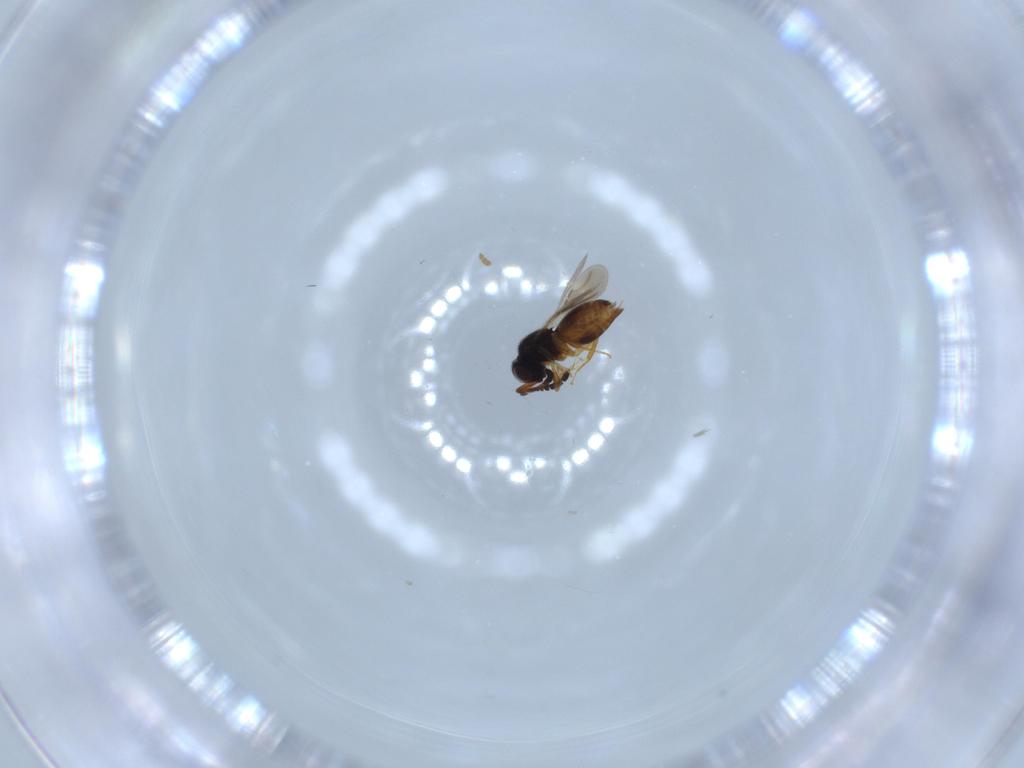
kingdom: Animalia
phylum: Arthropoda
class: Insecta
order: Hymenoptera
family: Ceraphronidae
